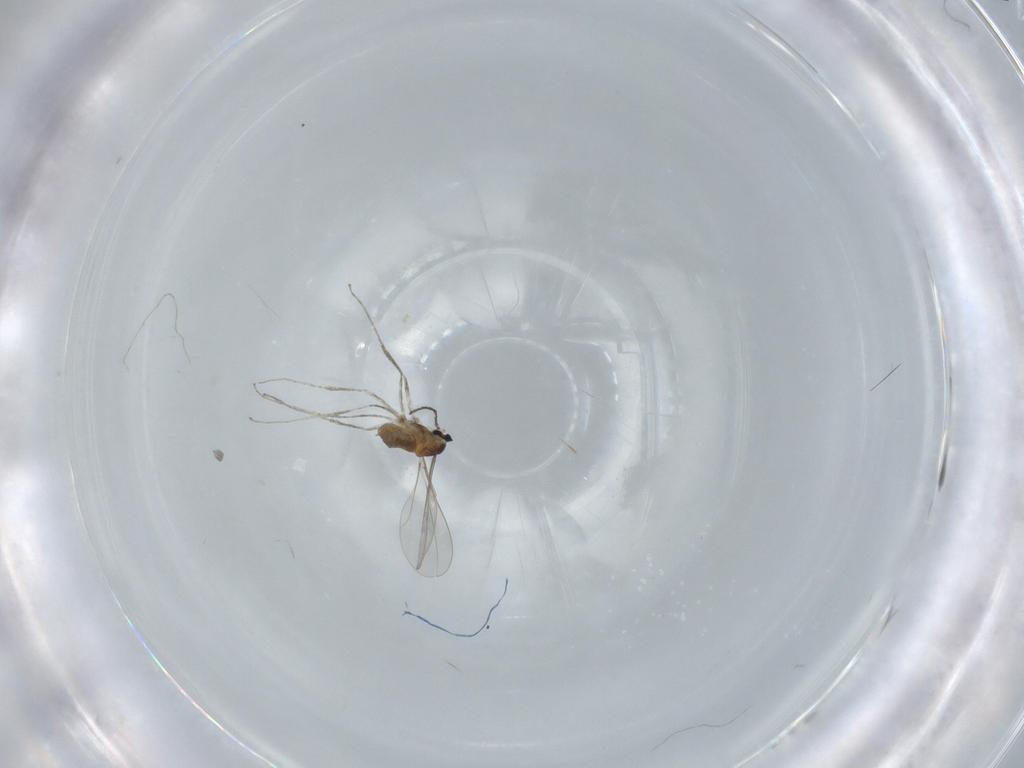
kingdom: Animalia
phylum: Arthropoda
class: Insecta
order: Diptera
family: Cecidomyiidae
